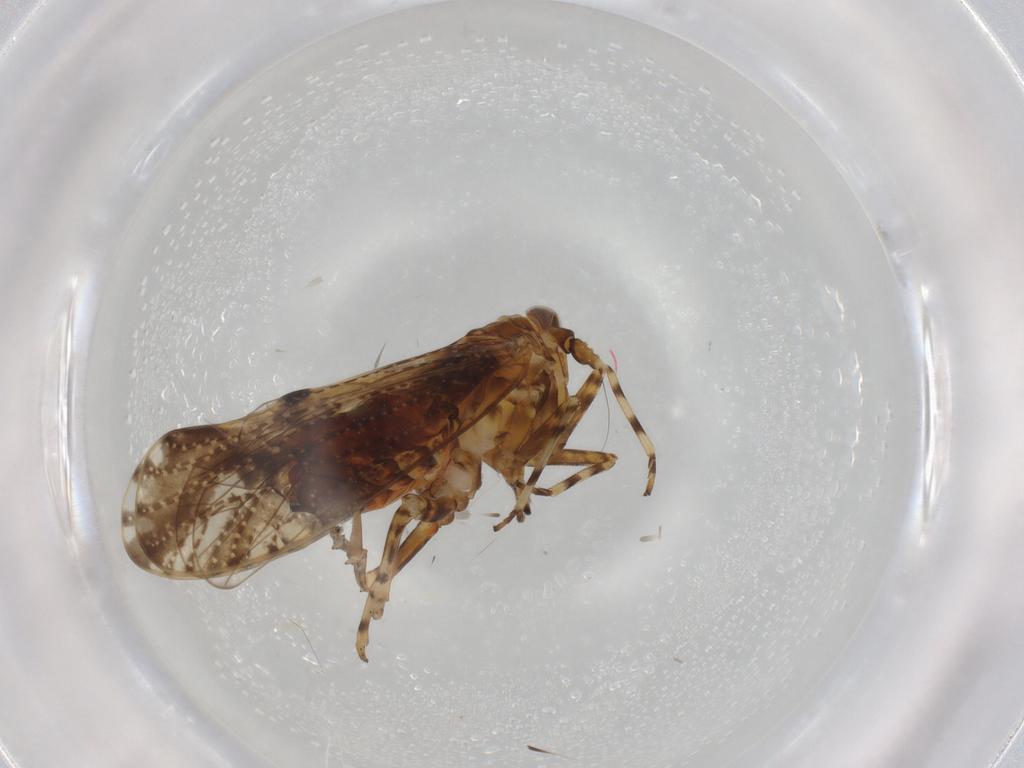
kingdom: Animalia
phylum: Arthropoda
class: Insecta
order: Hemiptera
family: Delphacidae
